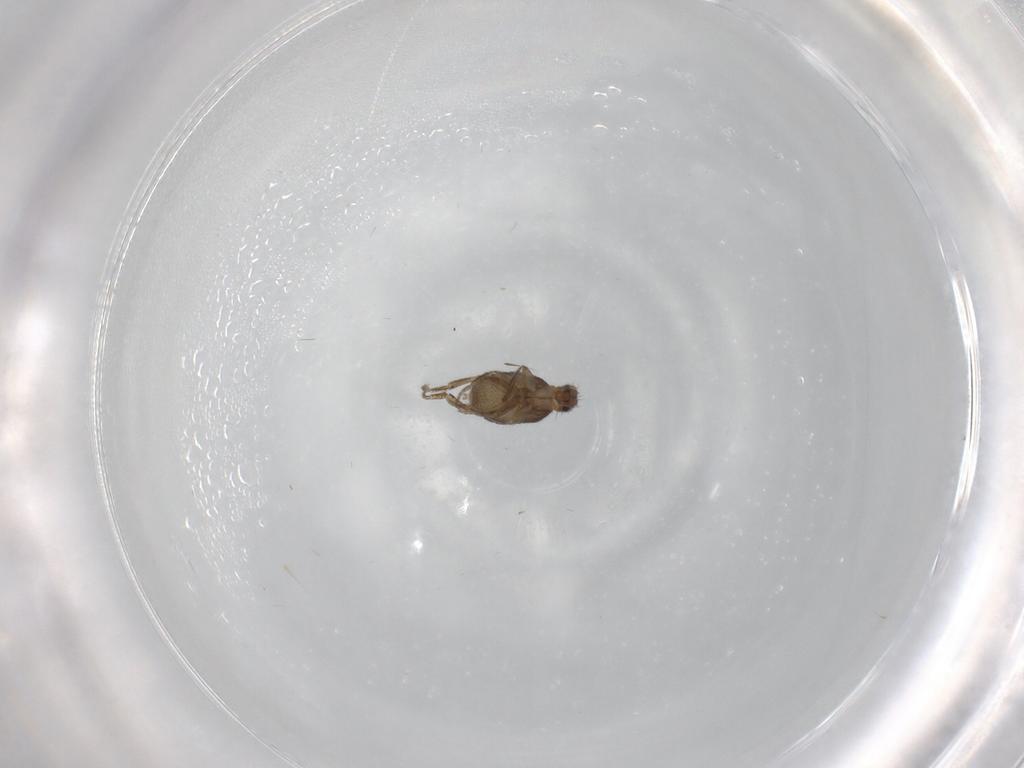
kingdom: Animalia
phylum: Arthropoda
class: Insecta
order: Diptera
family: Phoridae
